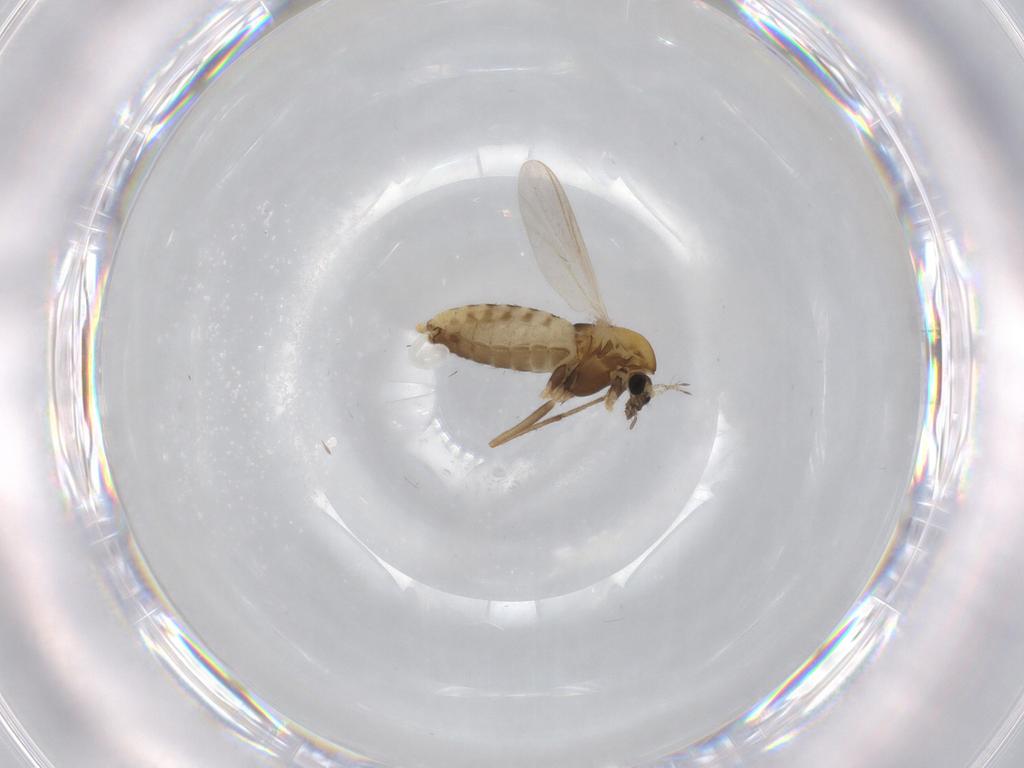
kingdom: Animalia
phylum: Arthropoda
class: Insecta
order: Diptera
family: Chironomidae
